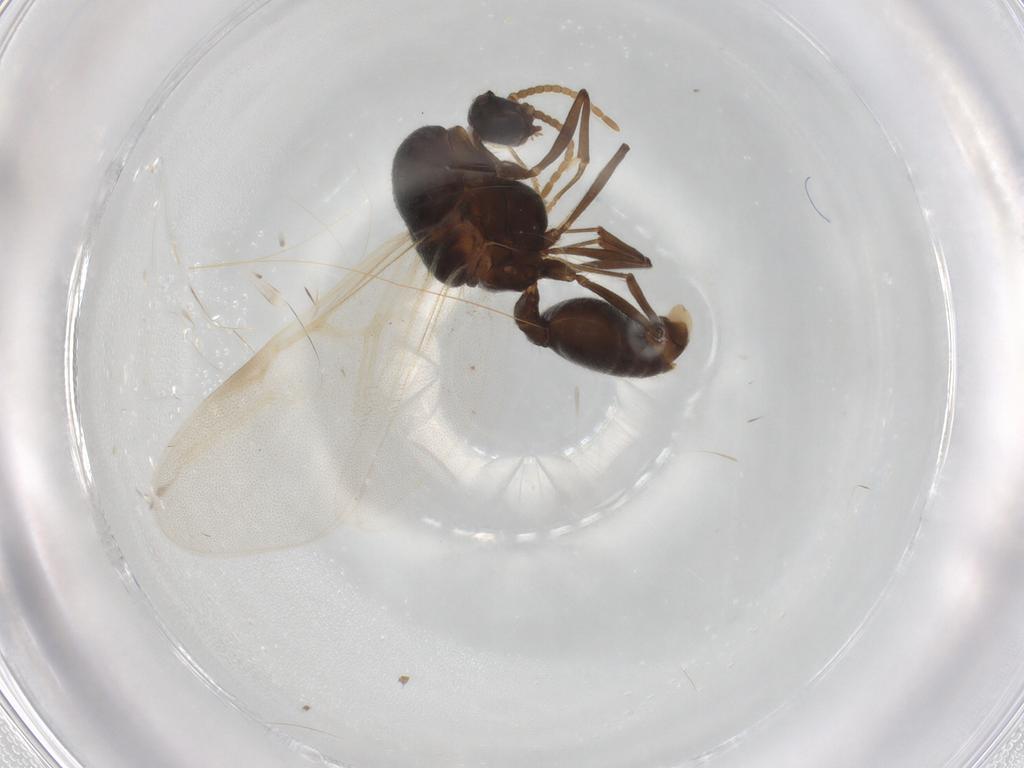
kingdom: Animalia
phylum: Arthropoda
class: Insecta
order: Hymenoptera
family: Formicidae
